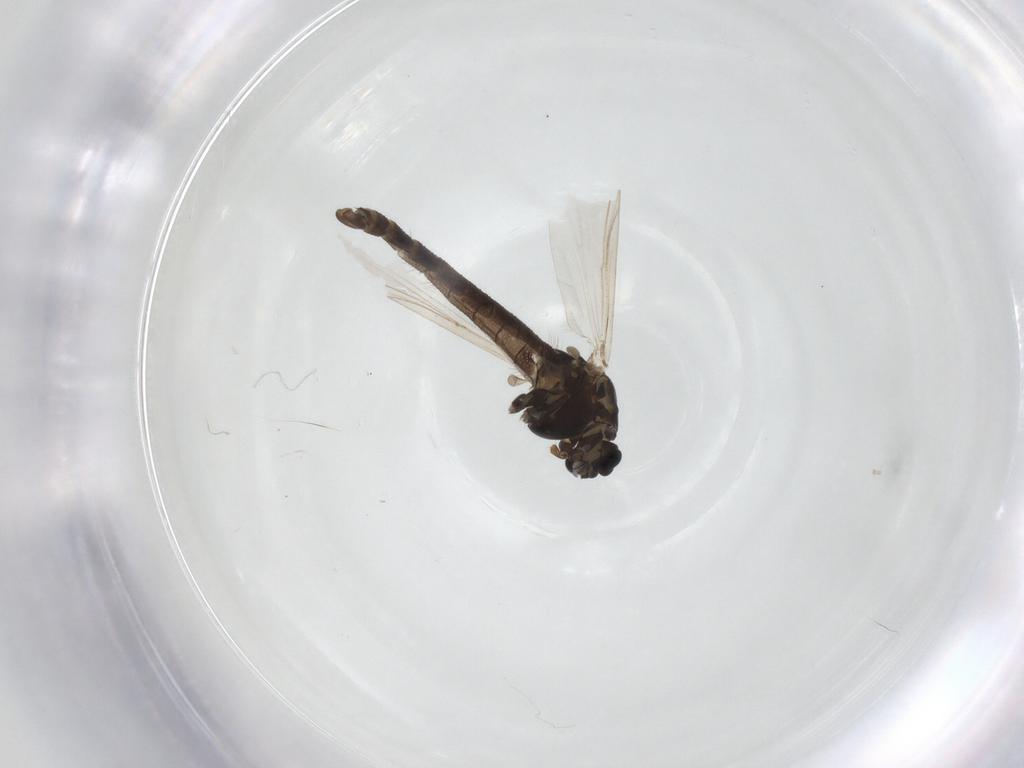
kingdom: Animalia
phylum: Arthropoda
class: Insecta
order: Diptera
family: Chironomidae
